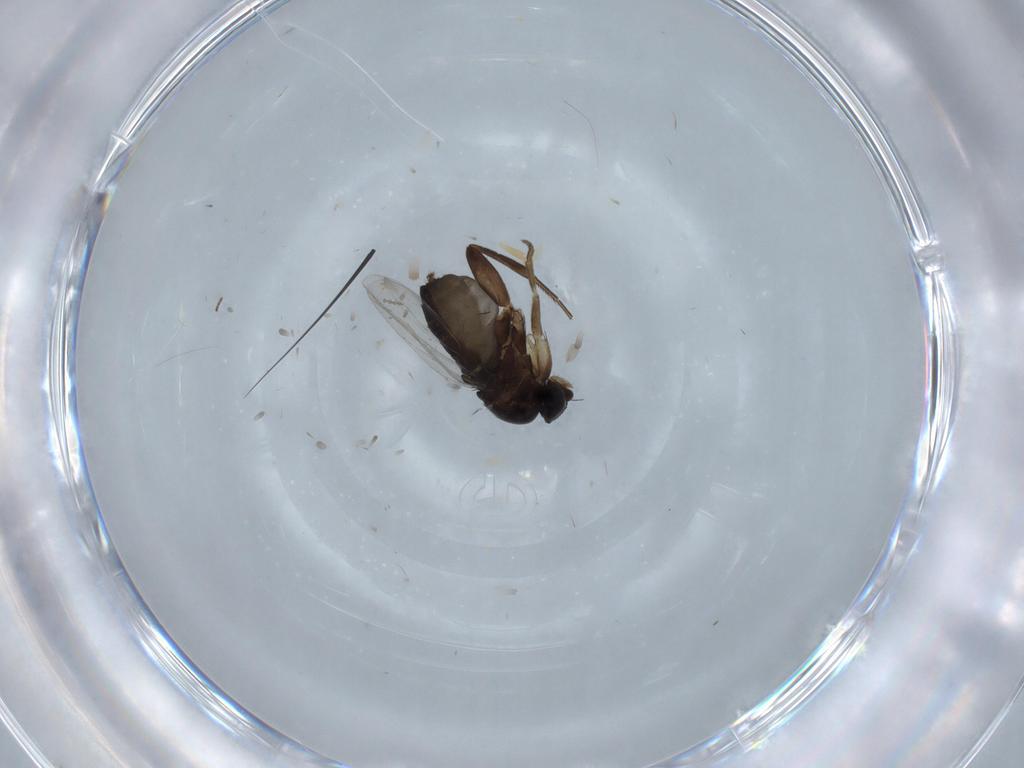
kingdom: Animalia
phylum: Arthropoda
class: Insecta
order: Diptera
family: Phoridae
